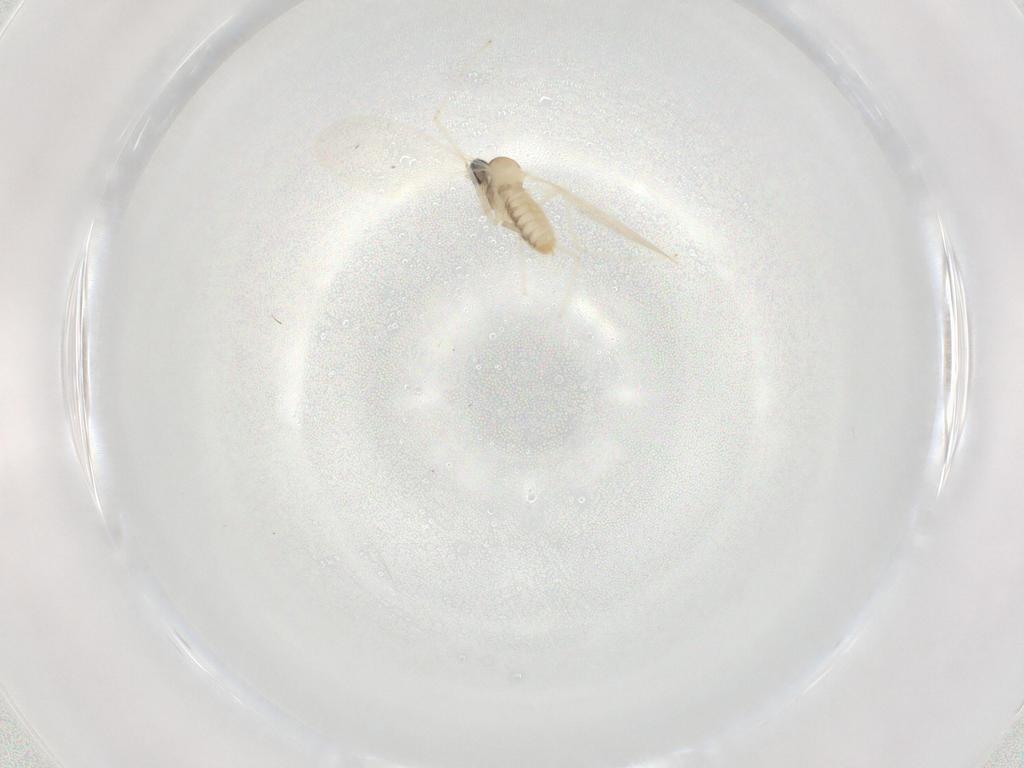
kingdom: Animalia
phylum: Arthropoda
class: Insecta
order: Diptera
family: Cecidomyiidae
